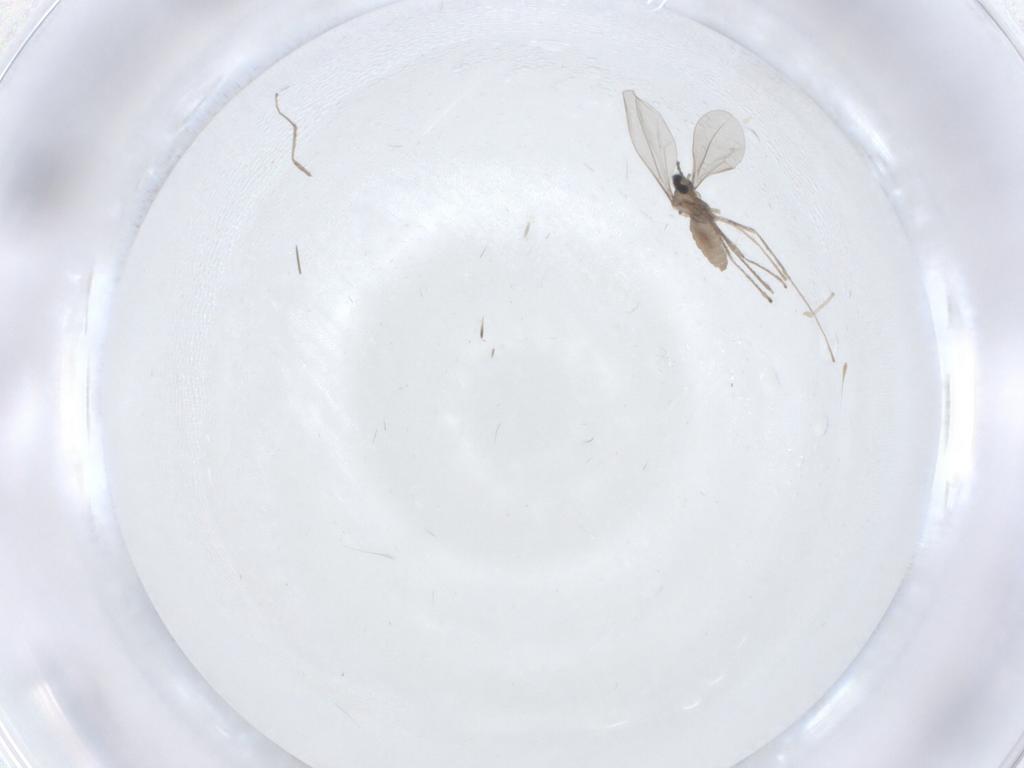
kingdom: Animalia
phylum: Arthropoda
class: Insecta
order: Diptera
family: Cecidomyiidae
